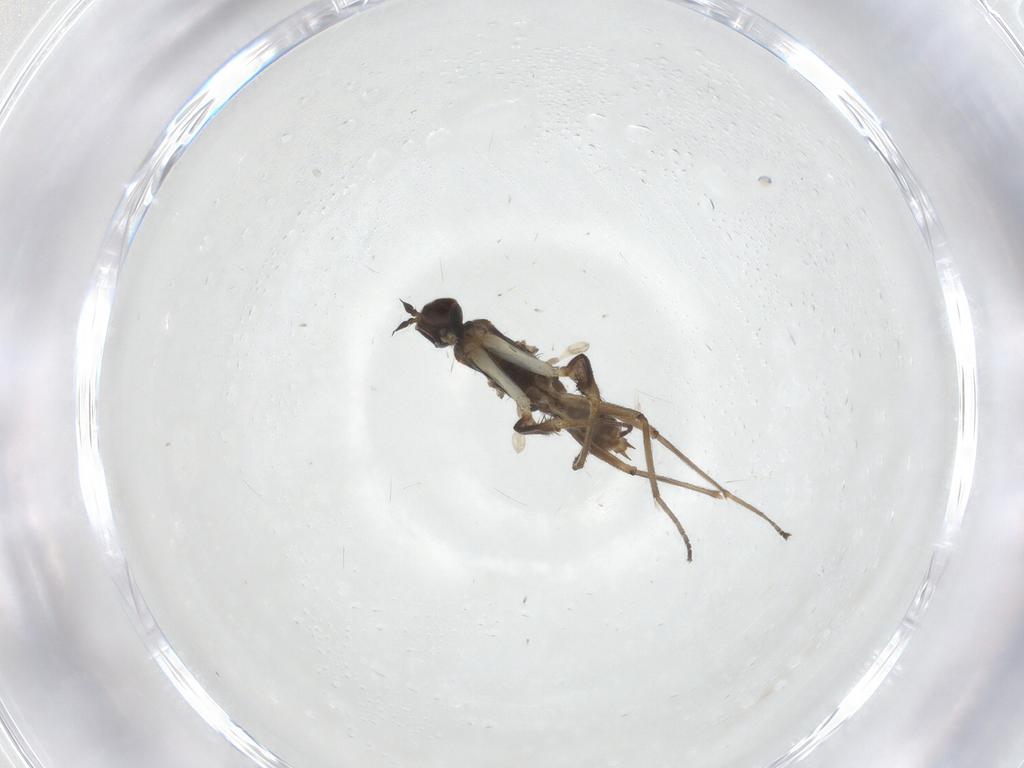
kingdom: Animalia
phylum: Arthropoda
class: Insecta
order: Diptera
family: Empididae
